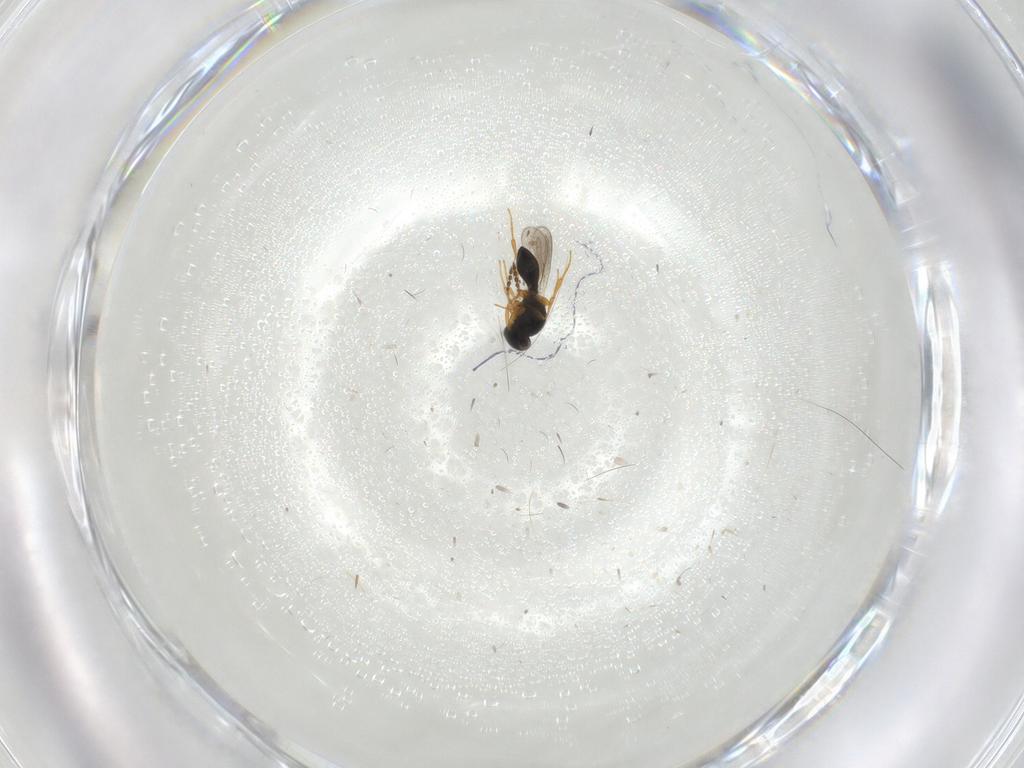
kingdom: Animalia
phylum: Arthropoda
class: Insecta
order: Hymenoptera
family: Platygastridae
